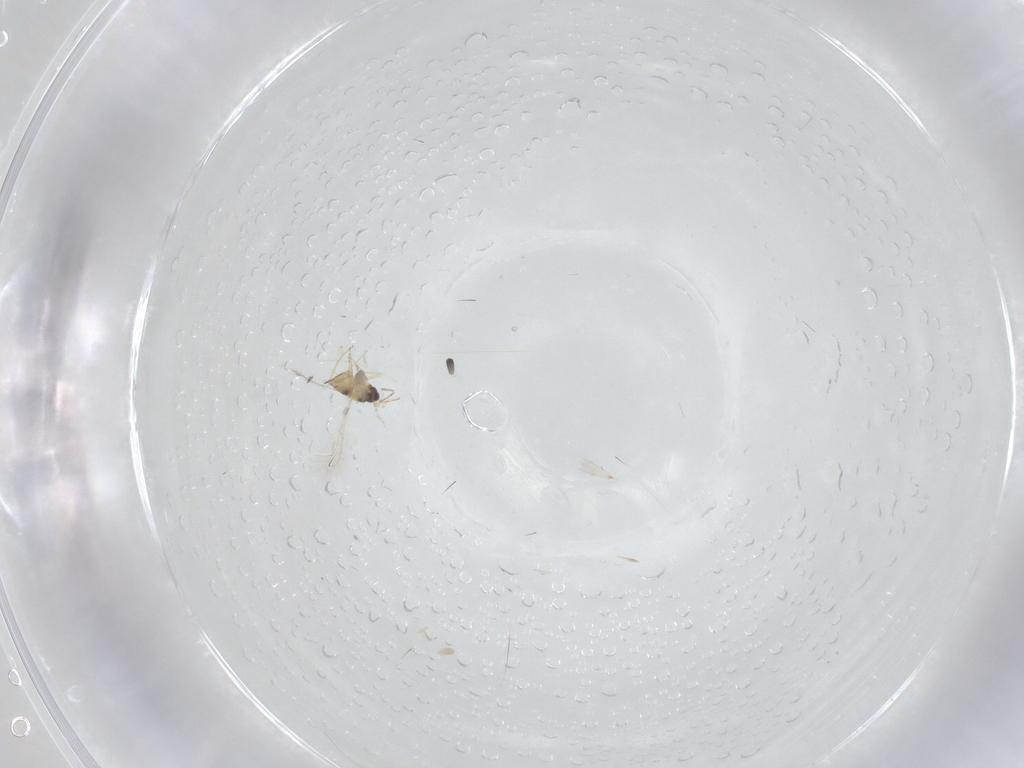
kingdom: Animalia
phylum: Arthropoda
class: Insecta
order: Hymenoptera
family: Mymaridae
